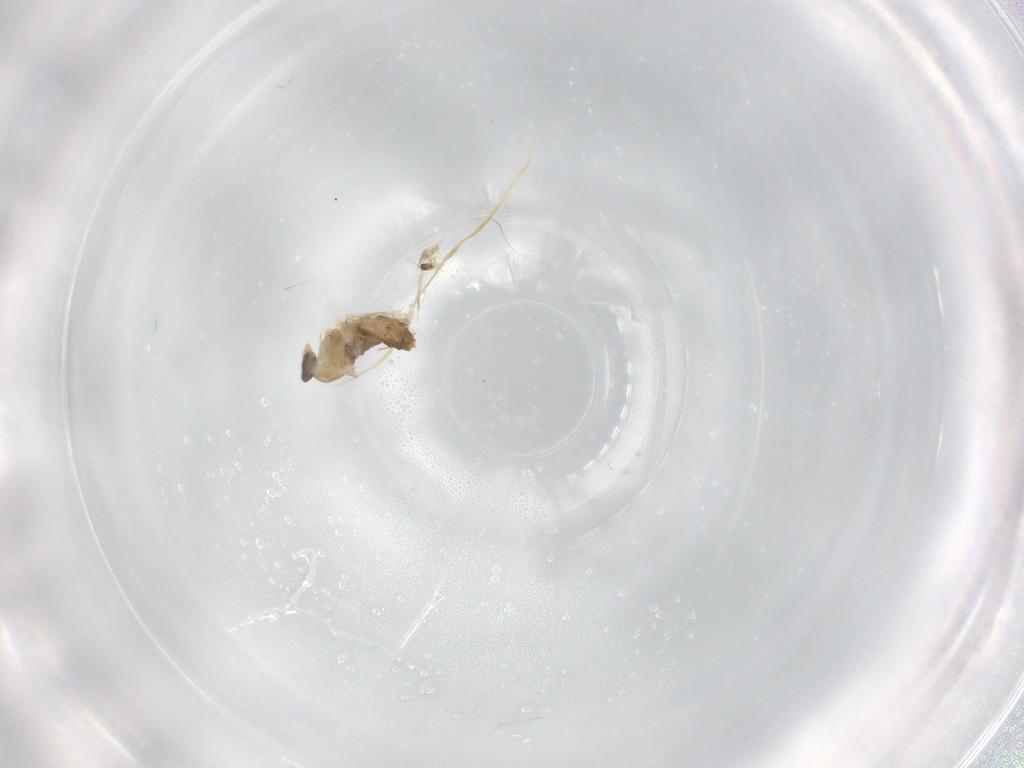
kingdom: Animalia
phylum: Arthropoda
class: Insecta
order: Diptera
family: Cecidomyiidae
